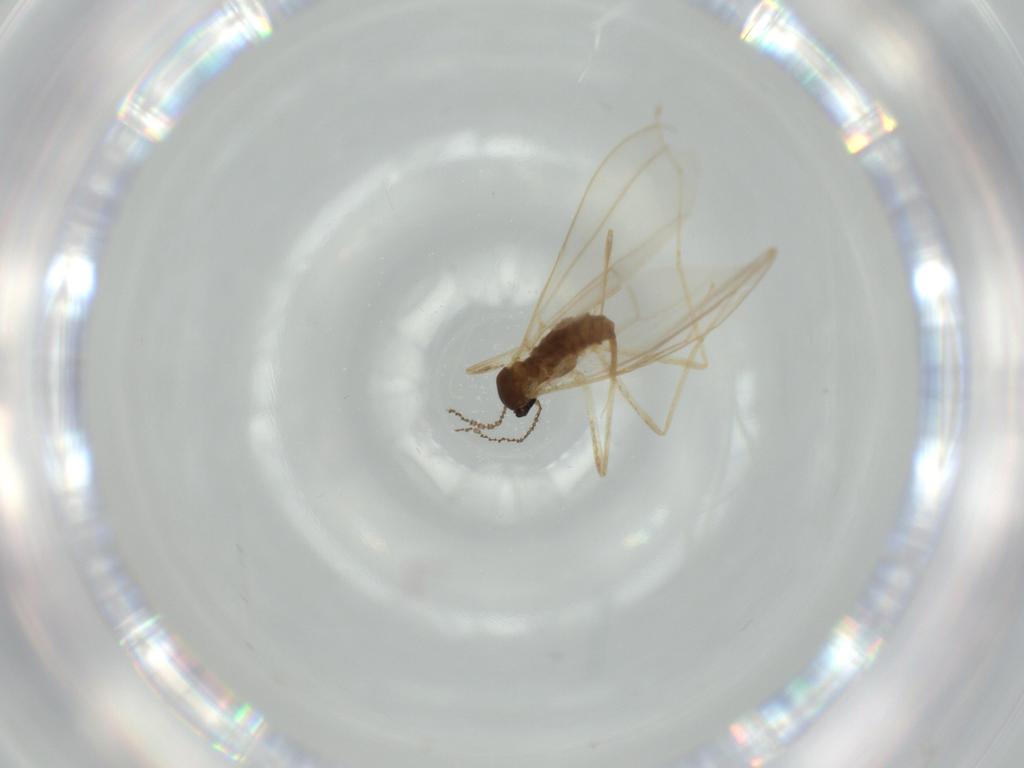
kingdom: Animalia
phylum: Arthropoda
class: Insecta
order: Diptera
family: Cecidomyiidae
